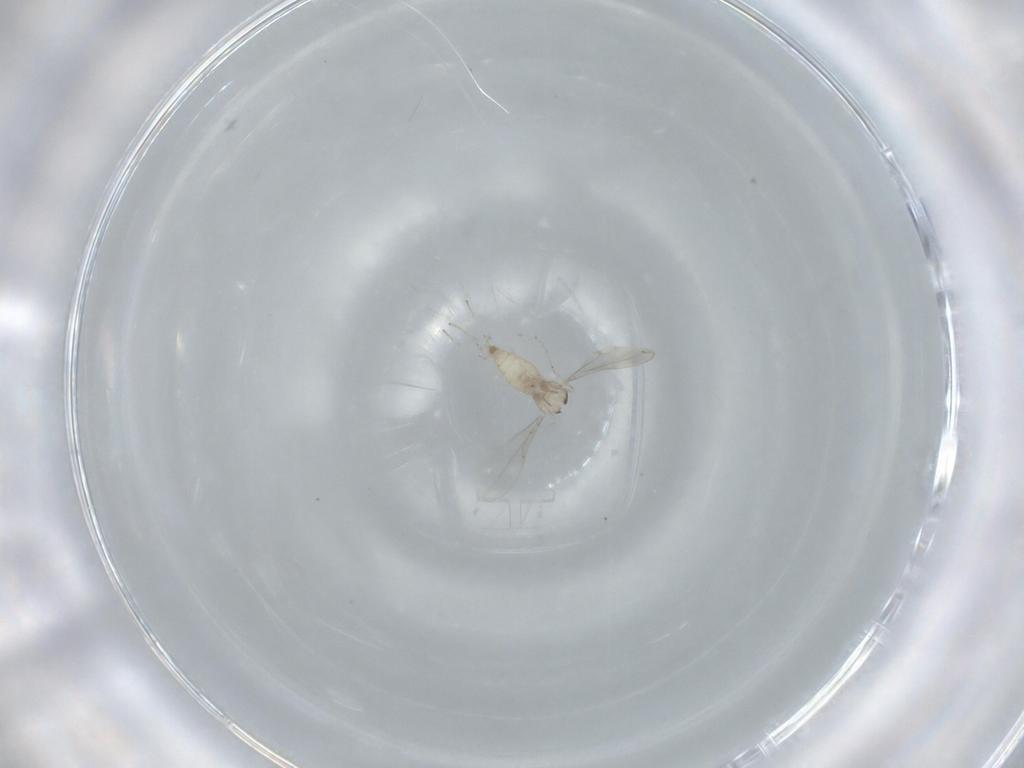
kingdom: Animalia
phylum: Arthropoda
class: Insecta
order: Diptera
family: Cecidomyiidae
